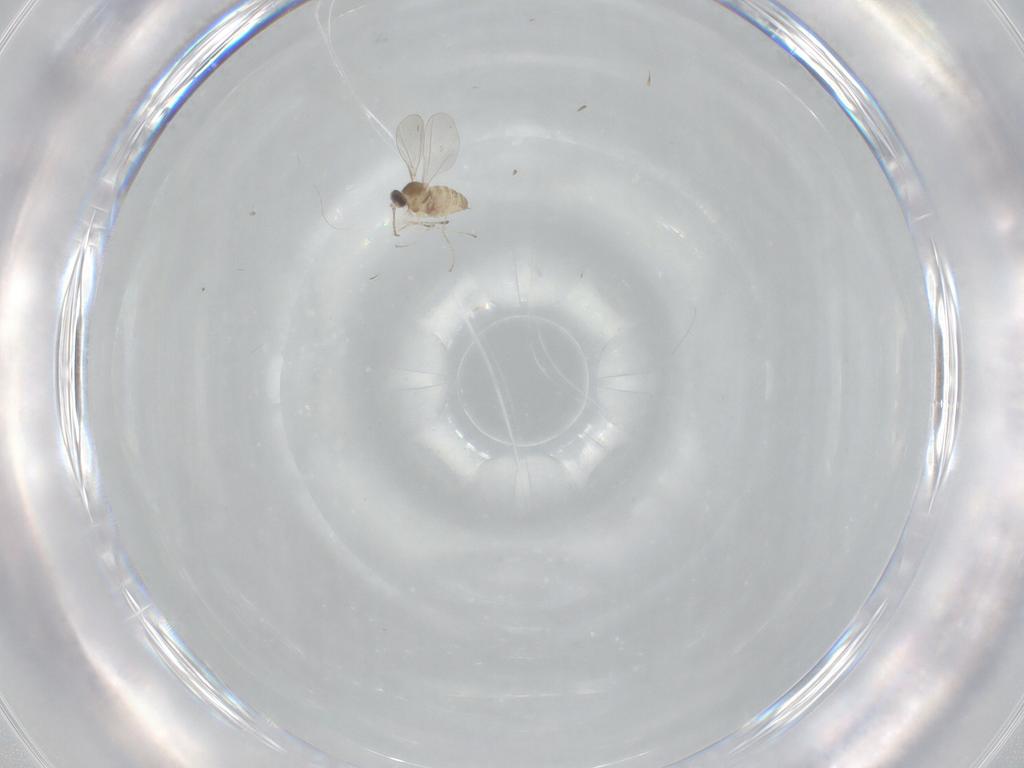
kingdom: Animalia
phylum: Arthropoda
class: Insecta
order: Diptera
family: Cecidomyiidae
